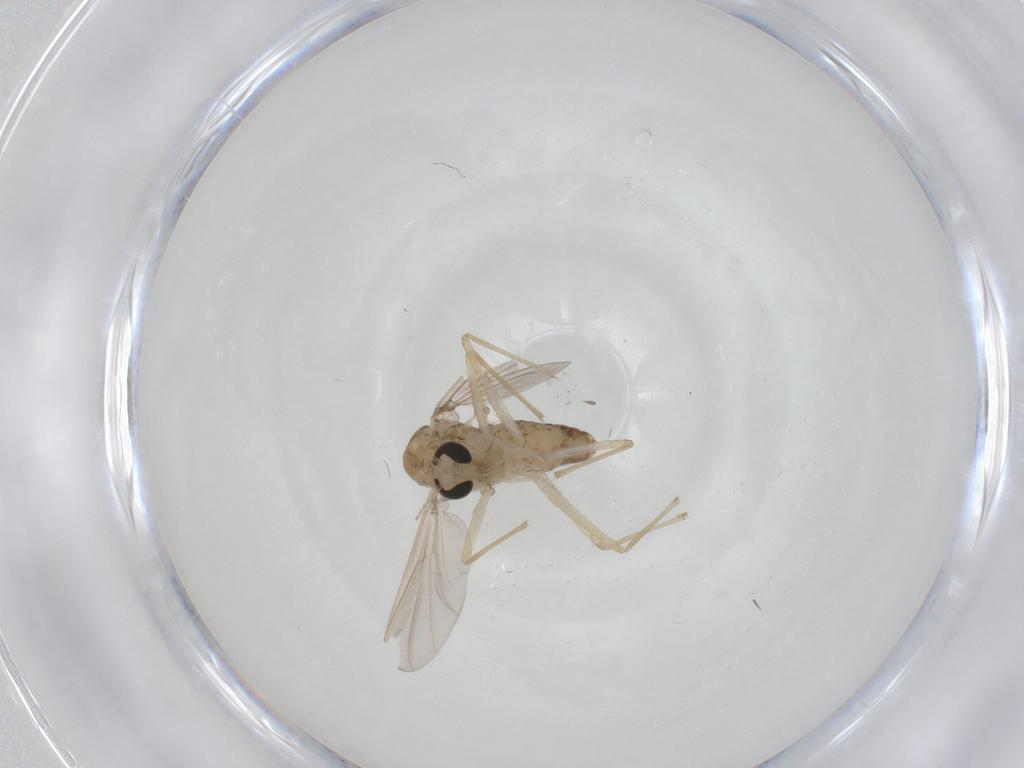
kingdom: Animalia
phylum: Arthropoda
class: Insecta
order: Diptera
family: Chironomidae
